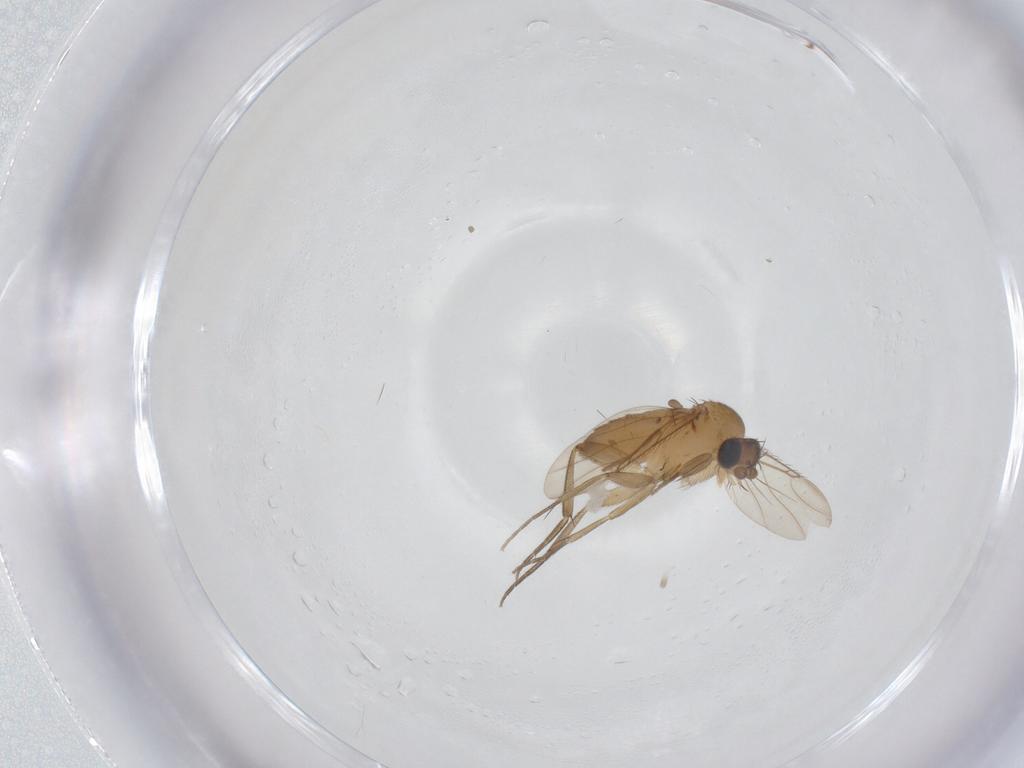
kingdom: Animalia
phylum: Arthropoda
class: Insecta
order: Diptera
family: Phoridae
